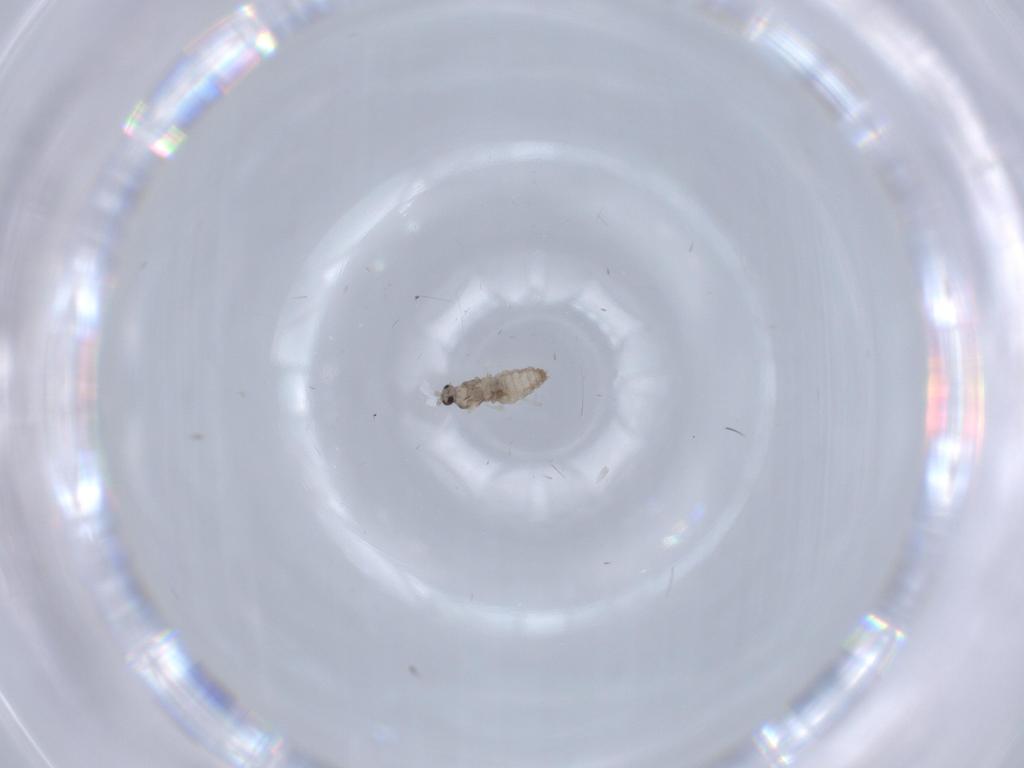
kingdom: Animalia
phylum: Arthropoda
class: Insecta
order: Diptera
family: Cecidomyiidae
